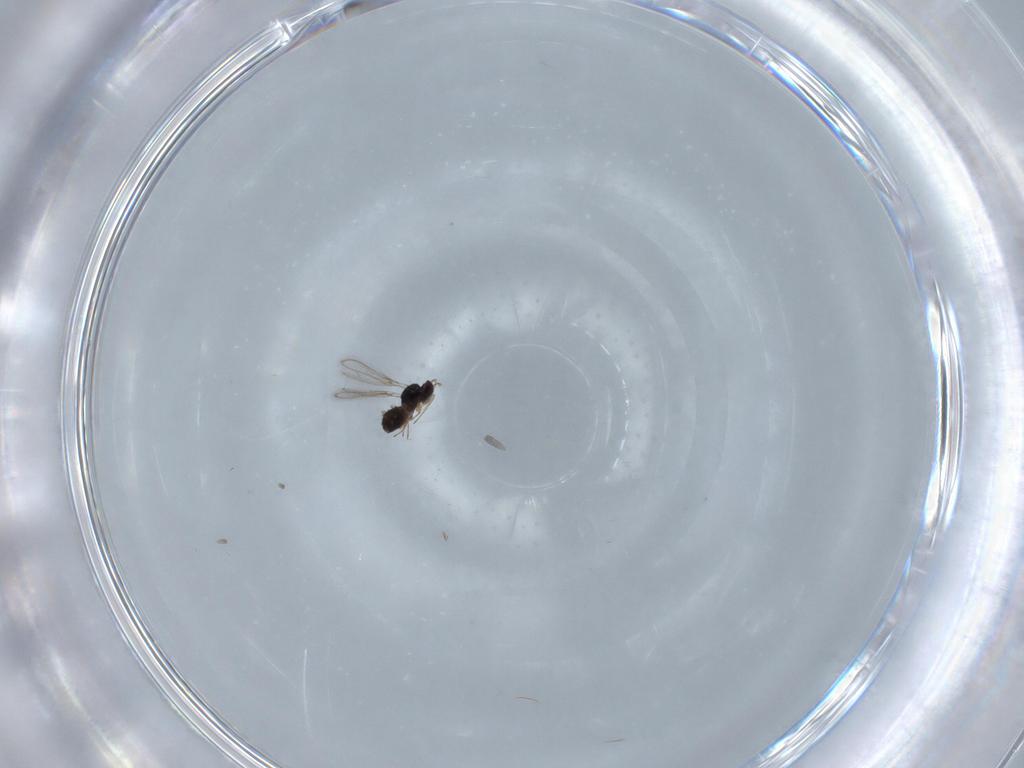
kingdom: Animalia
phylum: Arthropoda
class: Insecta
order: Hymenoptera
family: Mymaridae
